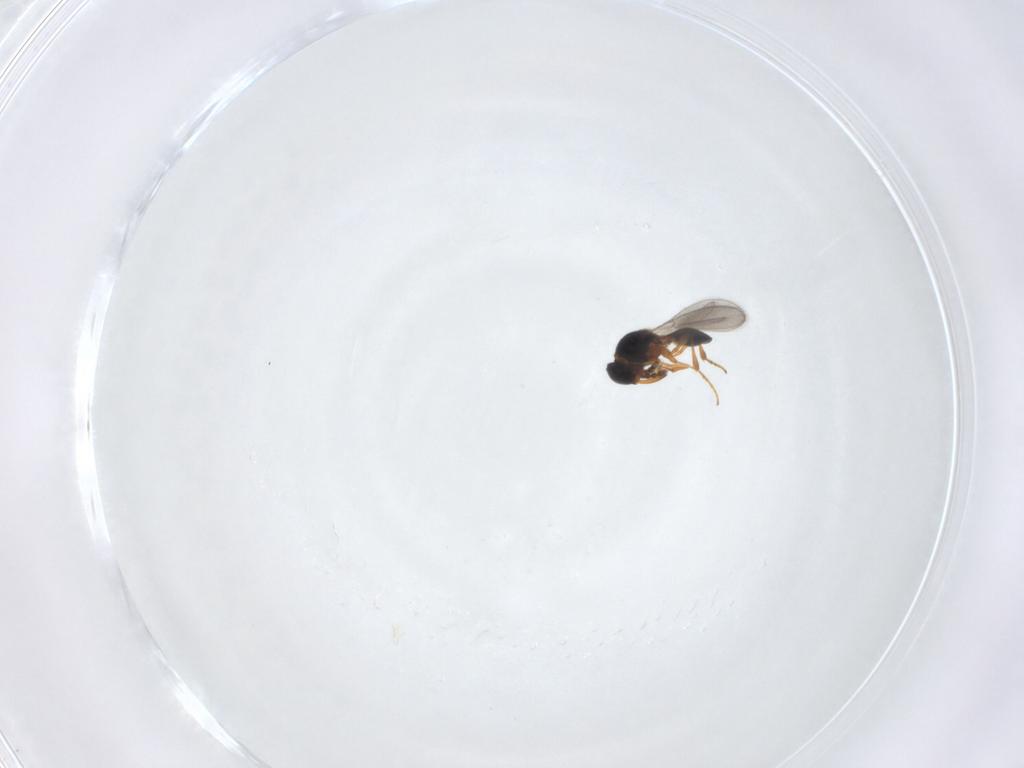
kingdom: Animalia
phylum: Arthropoda
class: Insecta
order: Hymenoptera
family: Platygastridae
